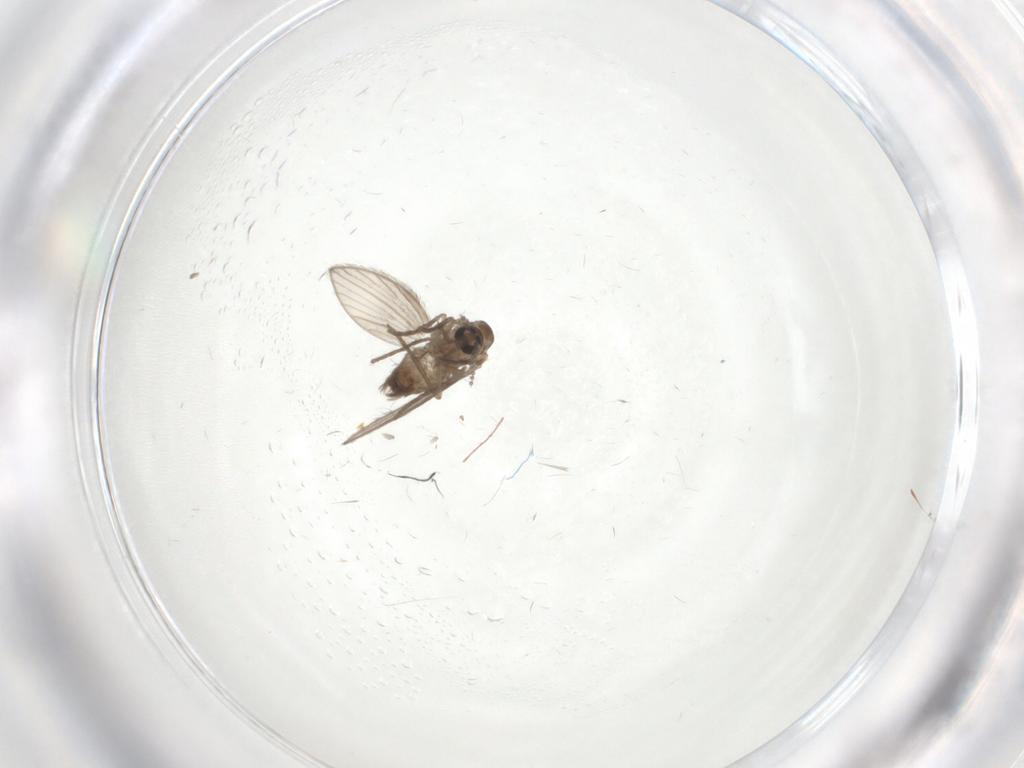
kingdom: Animalia
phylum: Arthropoda
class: Insecta
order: Diptera
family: Psychodidae
